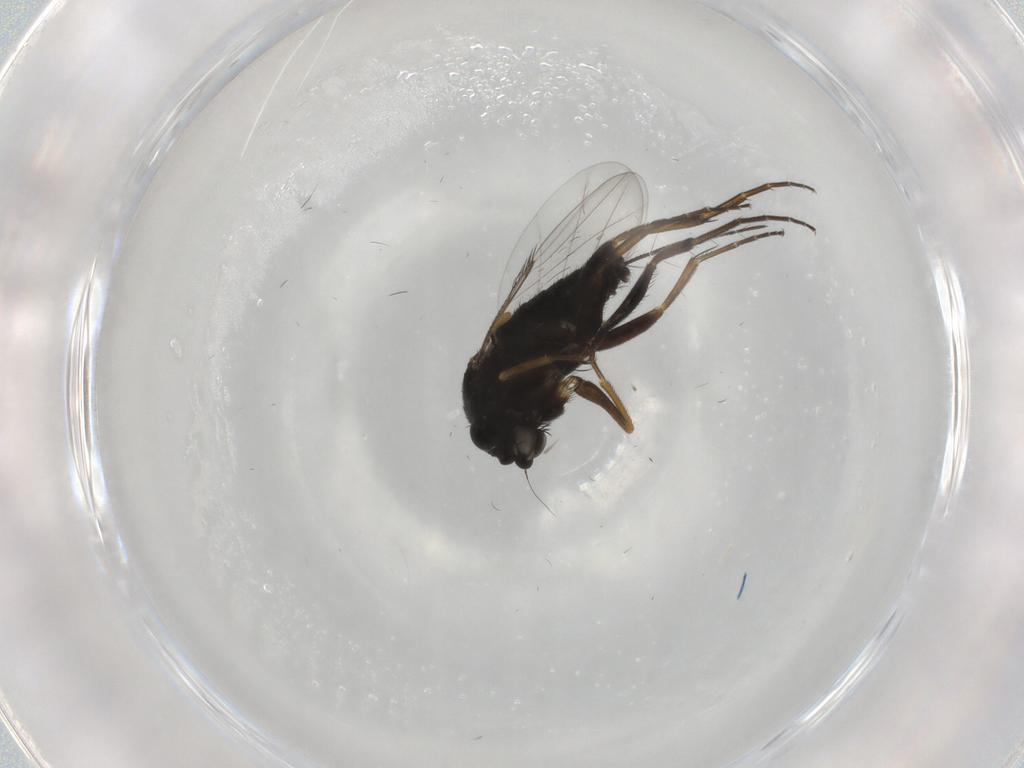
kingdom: Animalia
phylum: Arthropoda
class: Insecta
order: Diptera
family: Phoridae
